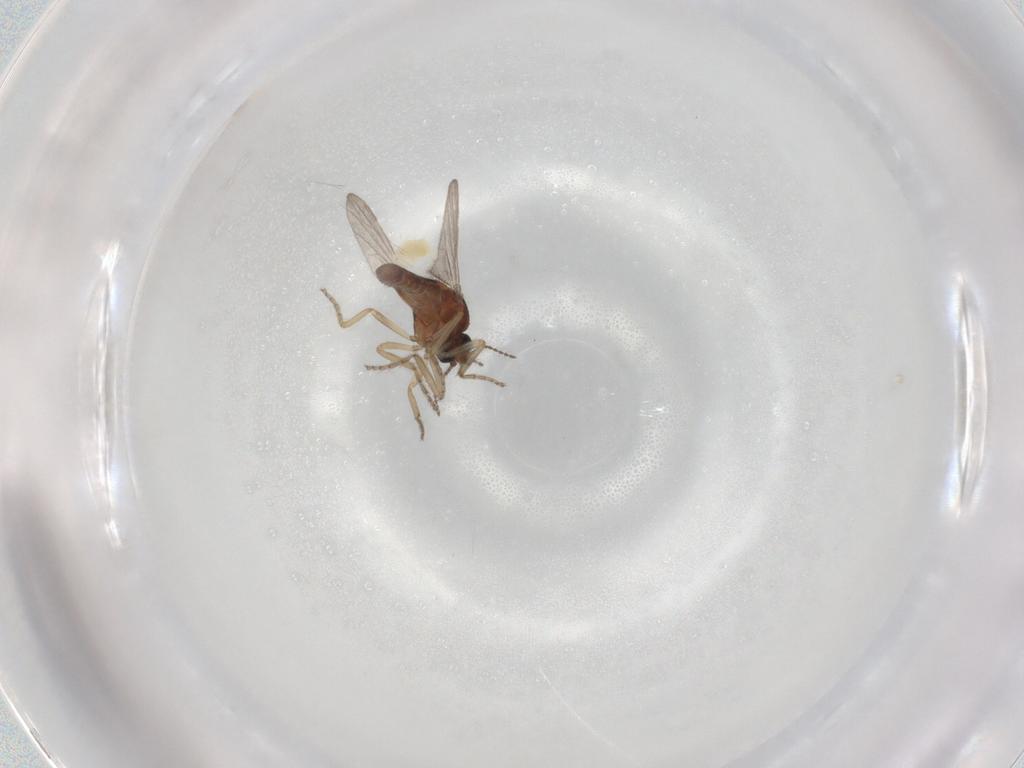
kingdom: Animalia
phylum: Arthropoda
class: Insecta
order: Diptera
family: Ceratopogonidae
